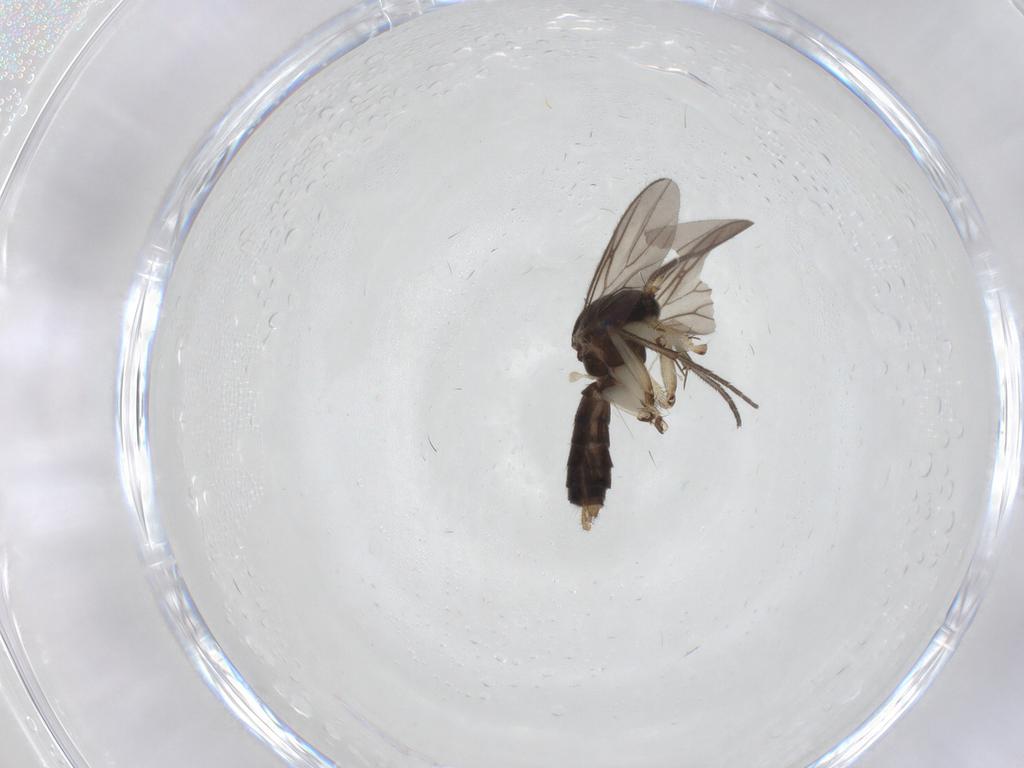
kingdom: Animalia
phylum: Arthropoda
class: Insecta
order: Diptera
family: Mycetophilidae
